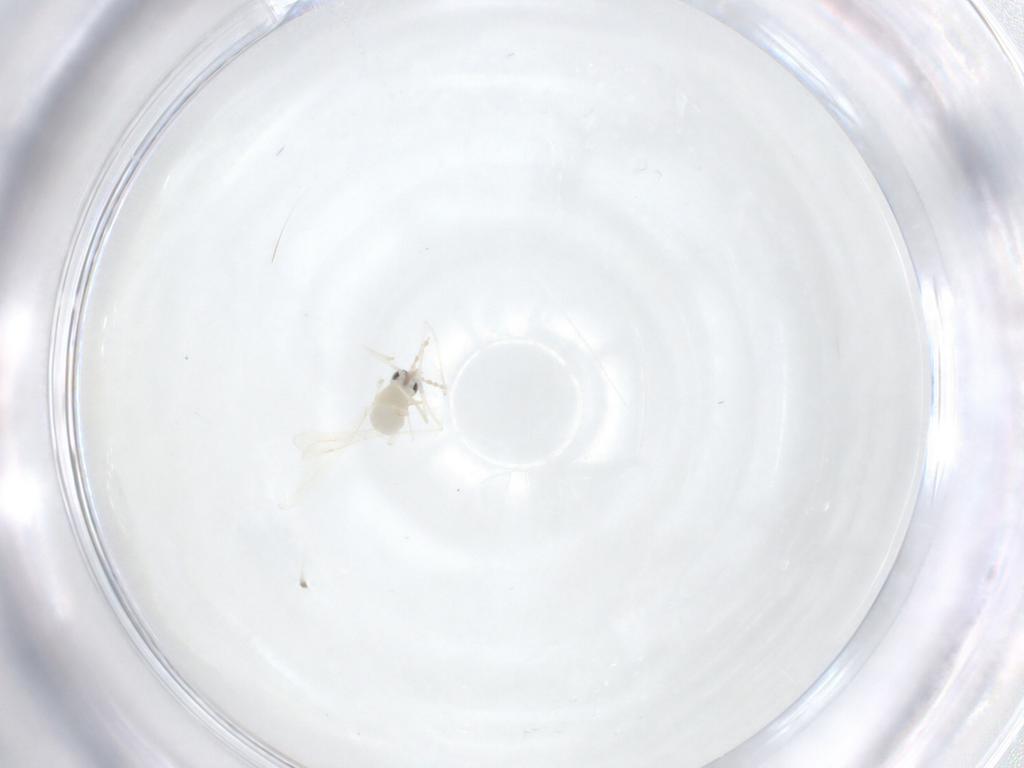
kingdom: Animalia
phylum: Arthropoda
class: Insecta
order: Diptera
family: Cecidomyiidae
